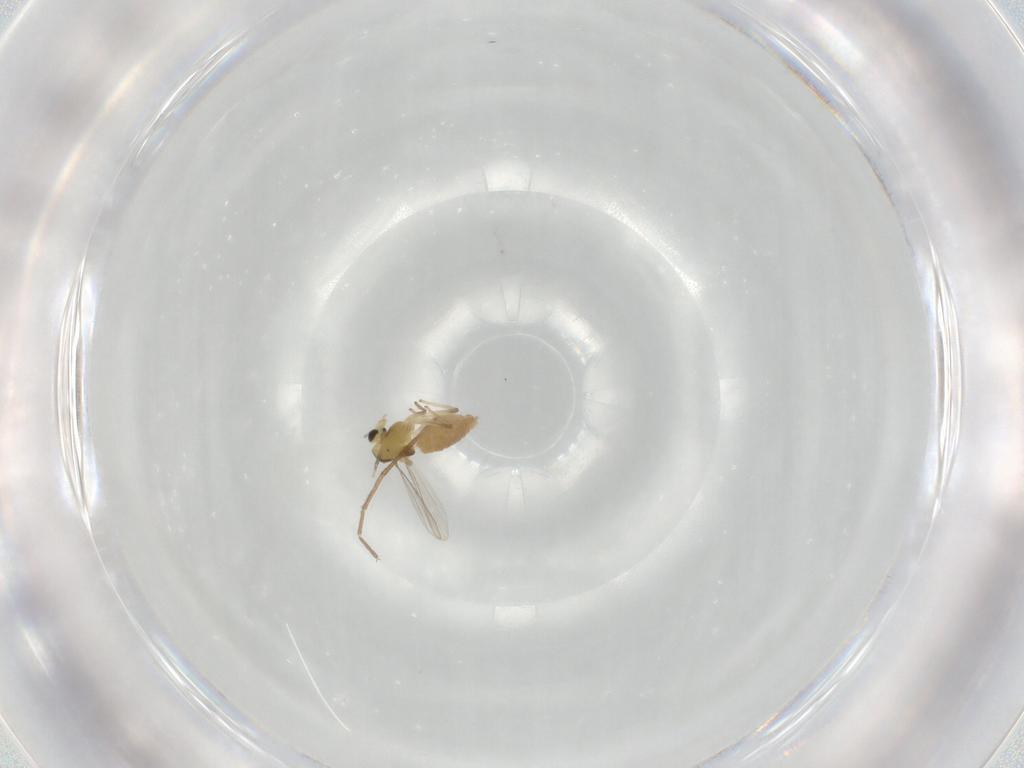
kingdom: Animalia
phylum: Arthropoda
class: Insecta
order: Diptera
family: Chironomidae
